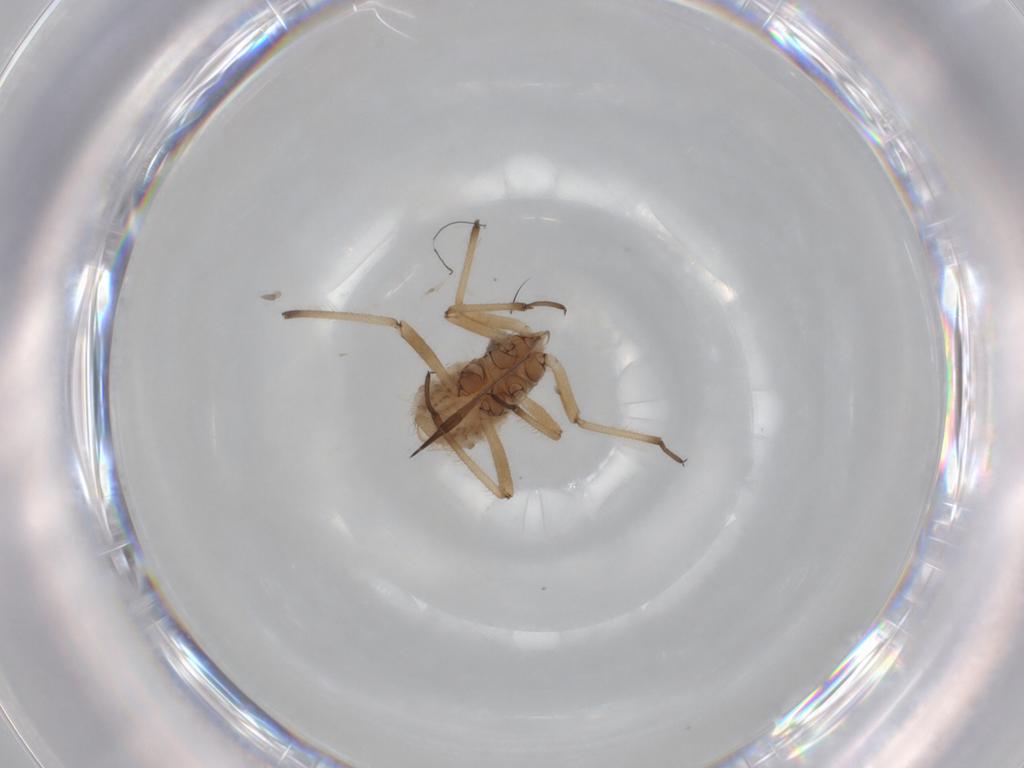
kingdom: Animalia
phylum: Arthropoda
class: Insecta
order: Hemiptera
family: Aphididae
